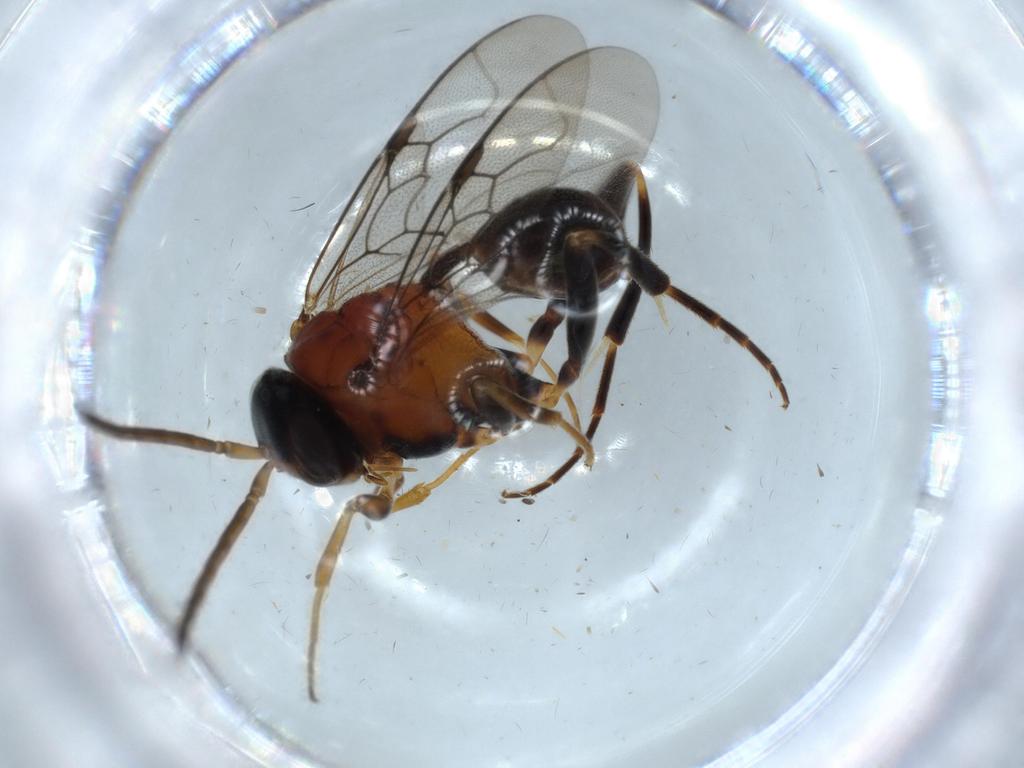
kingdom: Animalia
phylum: Arthropoda
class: Insecta
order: Hymenoptera
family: Evaniidae
